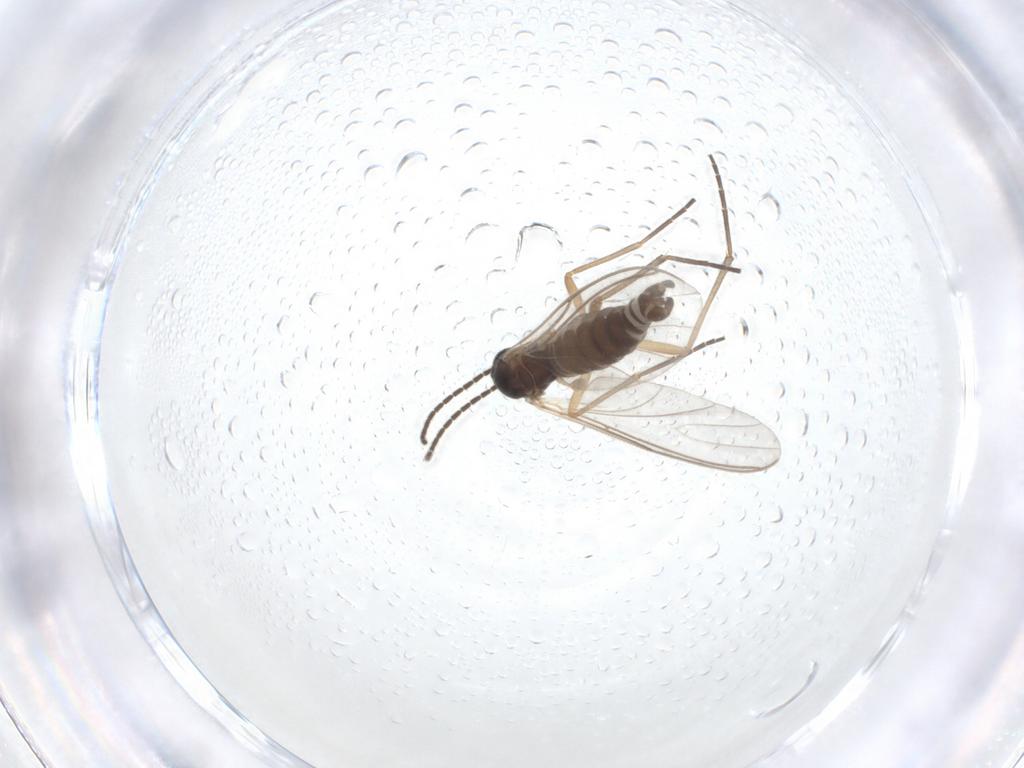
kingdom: Animalia
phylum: Arthropoda
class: Insecta
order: Diptera
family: Sciaridae
